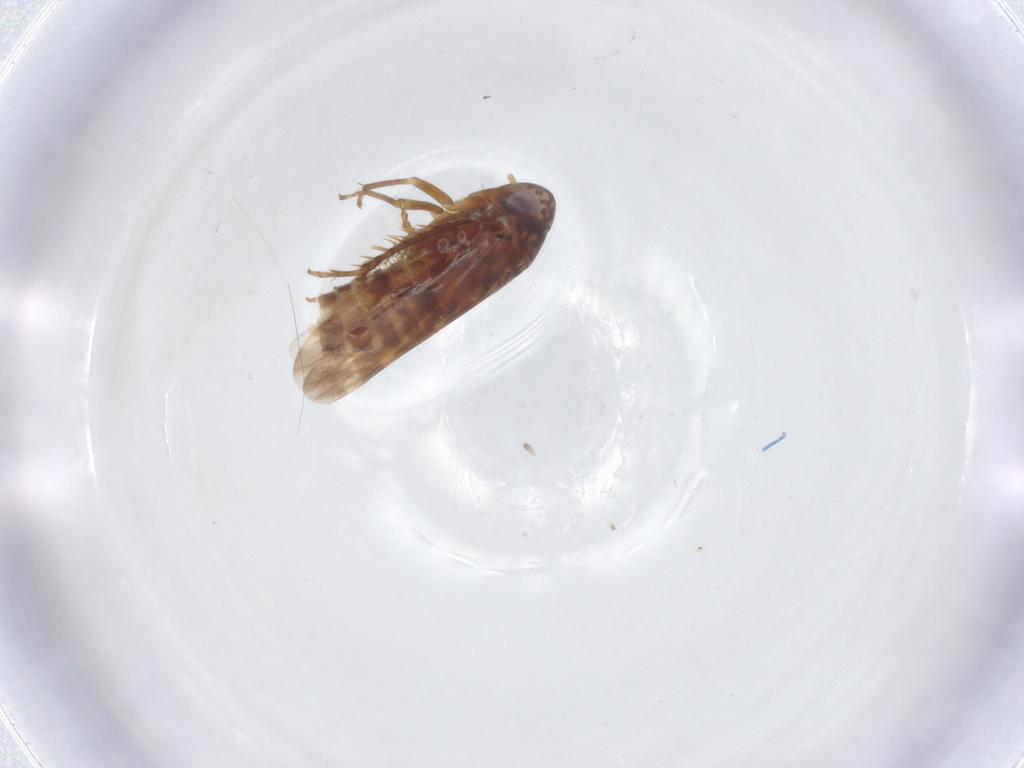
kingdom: Animalia
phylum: Arthropoda
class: Insecta
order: Hemiptera
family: Cicadellidae
